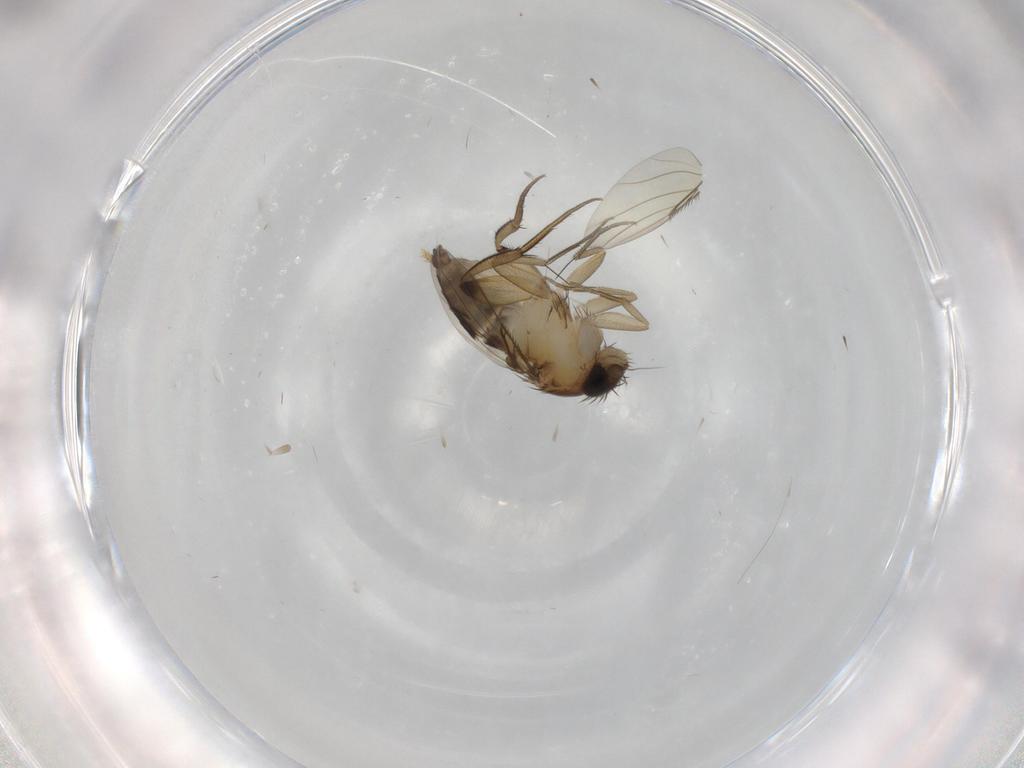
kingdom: Animalia
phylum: Arthropoda
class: Insecta
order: Diptera
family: Phoridae
